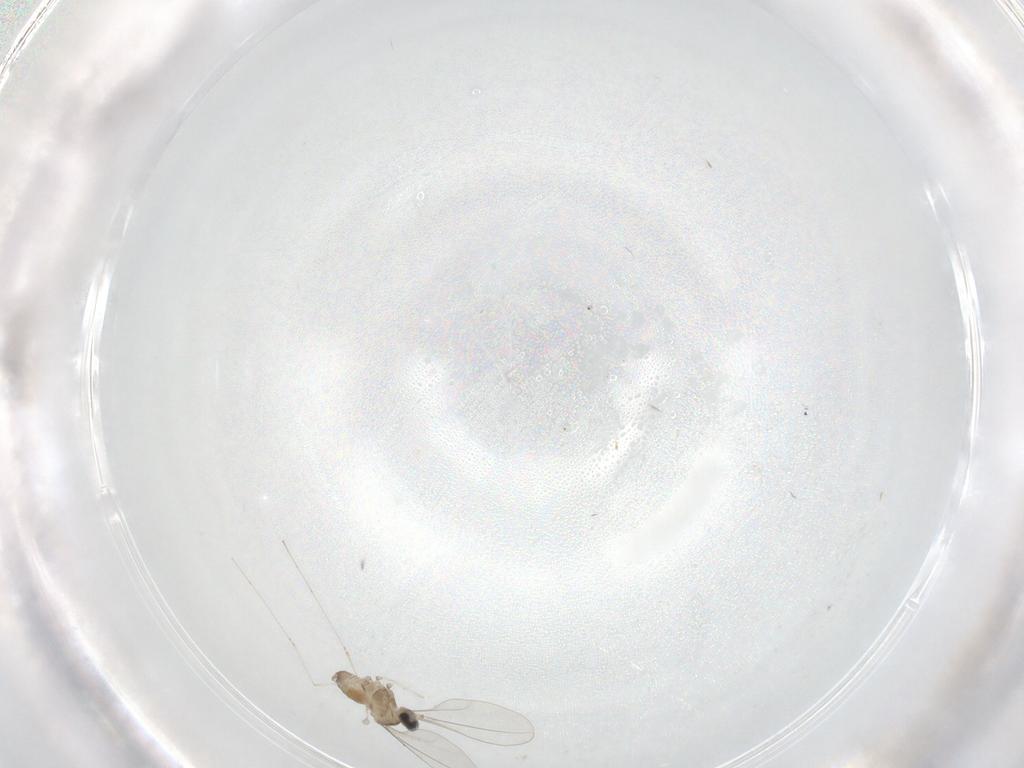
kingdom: Animalia
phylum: Arthropoda
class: Insecta
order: Diptera
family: Cecidomyiidae
